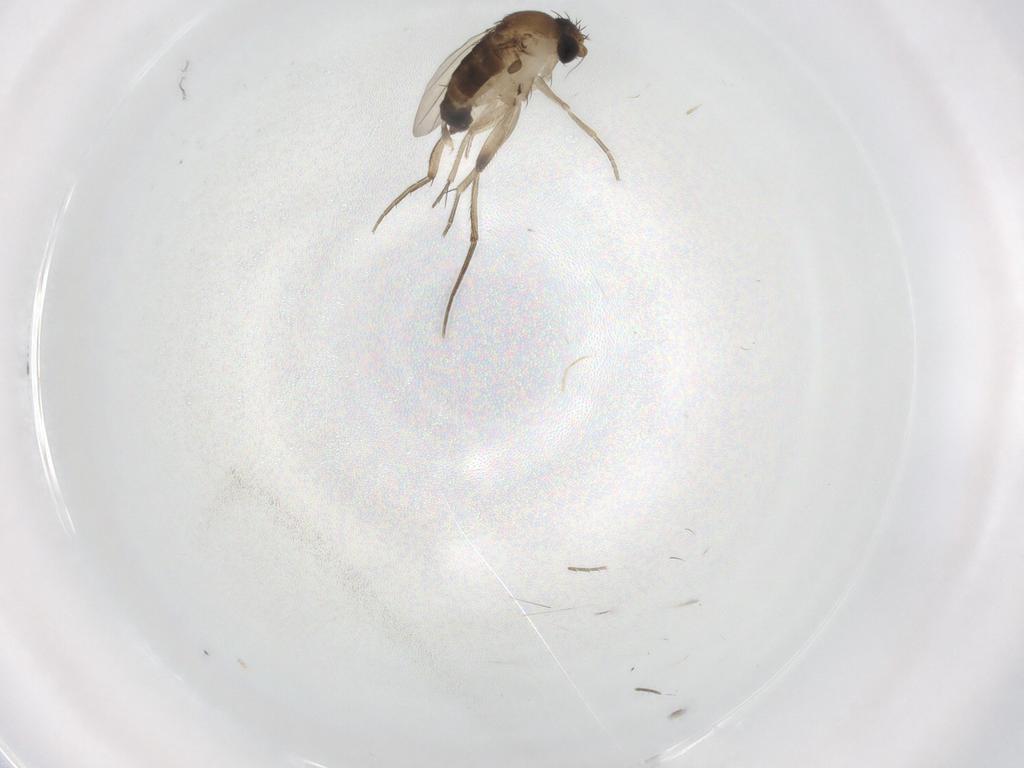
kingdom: Animalia
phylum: Arthropoda
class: Insecta
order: Diptera
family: Phoridae
